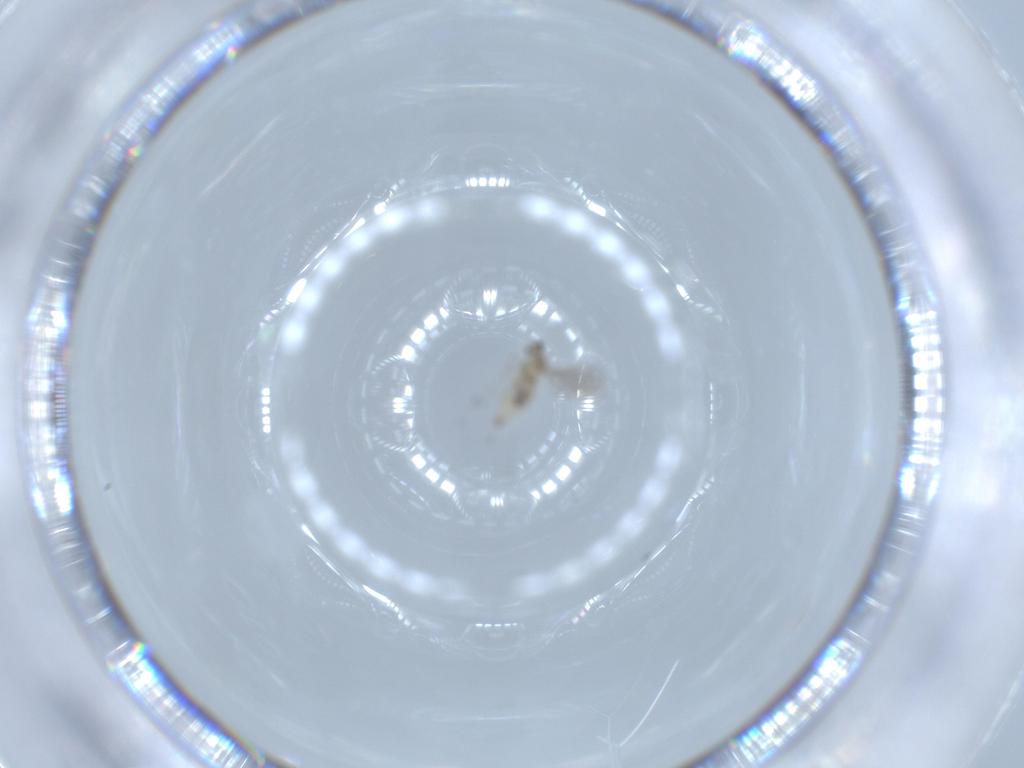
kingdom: Animalia
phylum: Arthropoda
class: Insecta
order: Diptera
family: Cecidomyiidae
